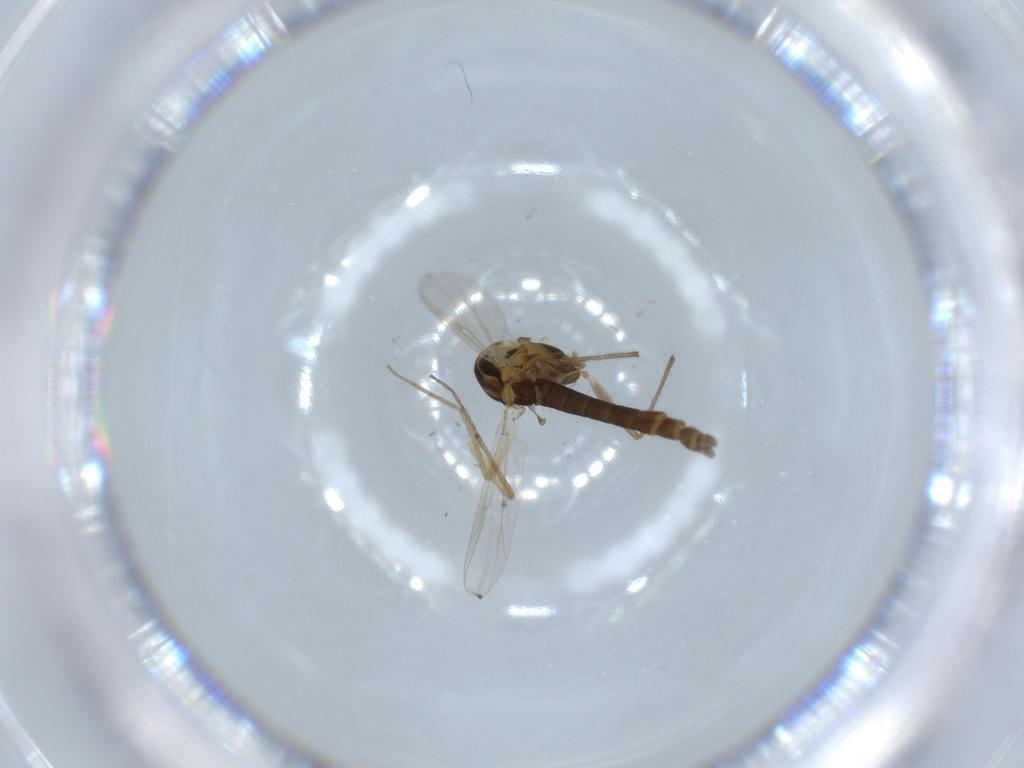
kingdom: Animalia
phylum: Arthropoda
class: Insecta
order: Diptera
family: Chironomidae
